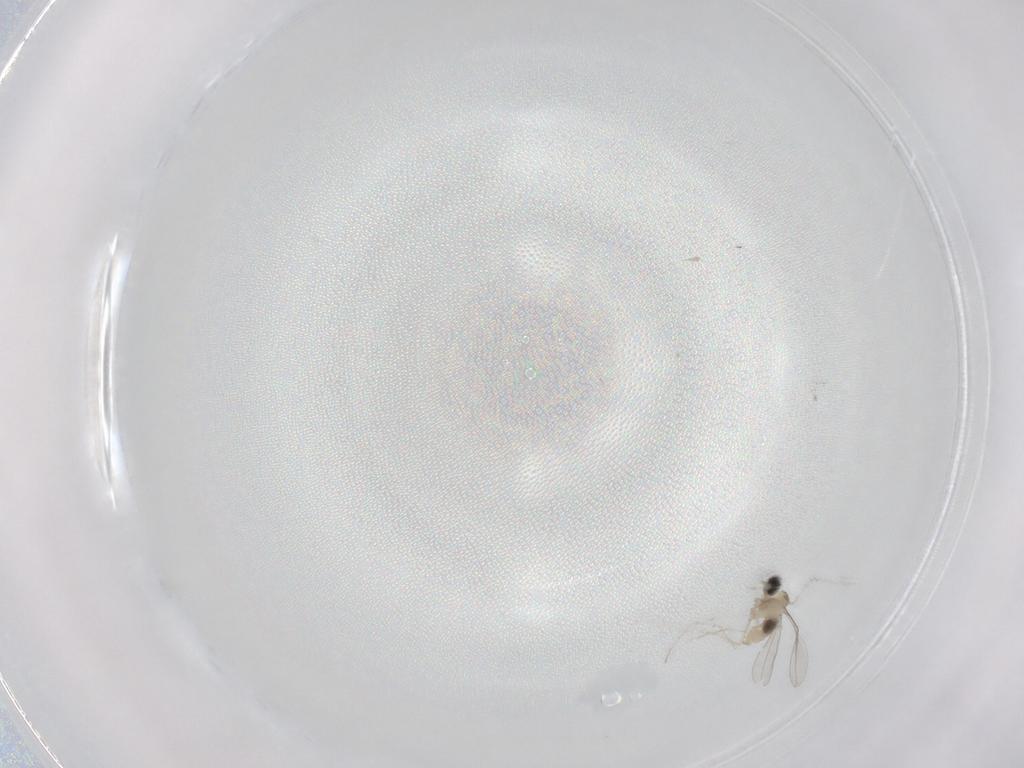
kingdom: Animalia
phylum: Arthropoda
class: Insecta
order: Diptera
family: Cecidomyiidae
